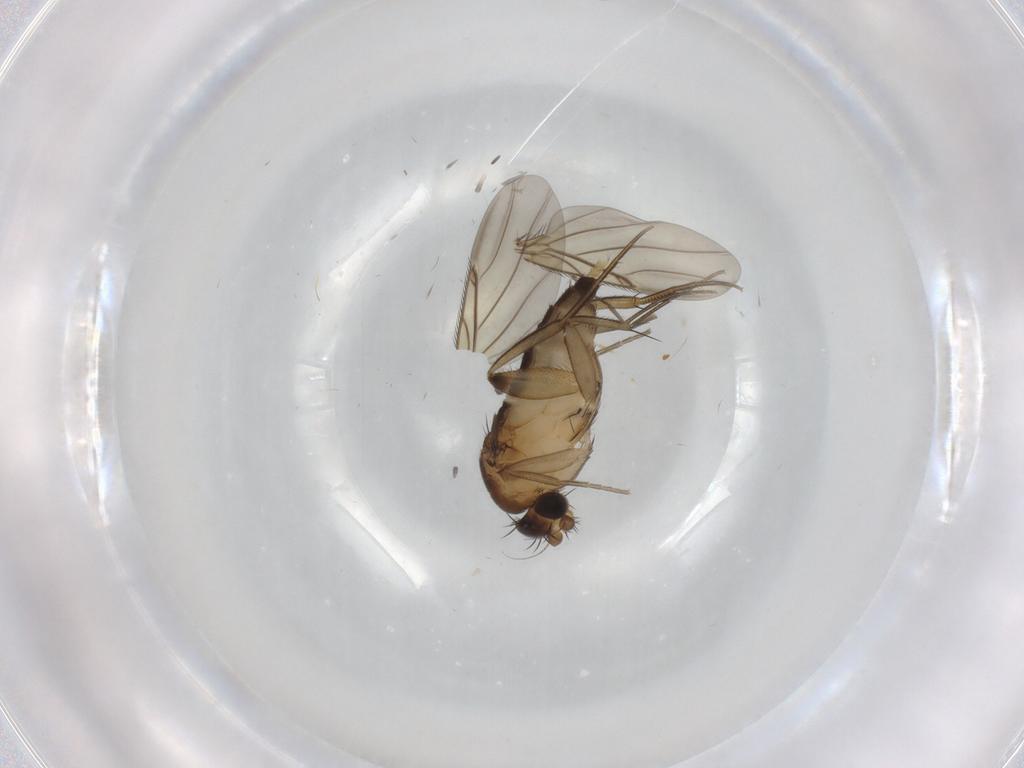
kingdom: Animalia
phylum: Arthropoda
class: Insecta
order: Diptera
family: Phoridae
